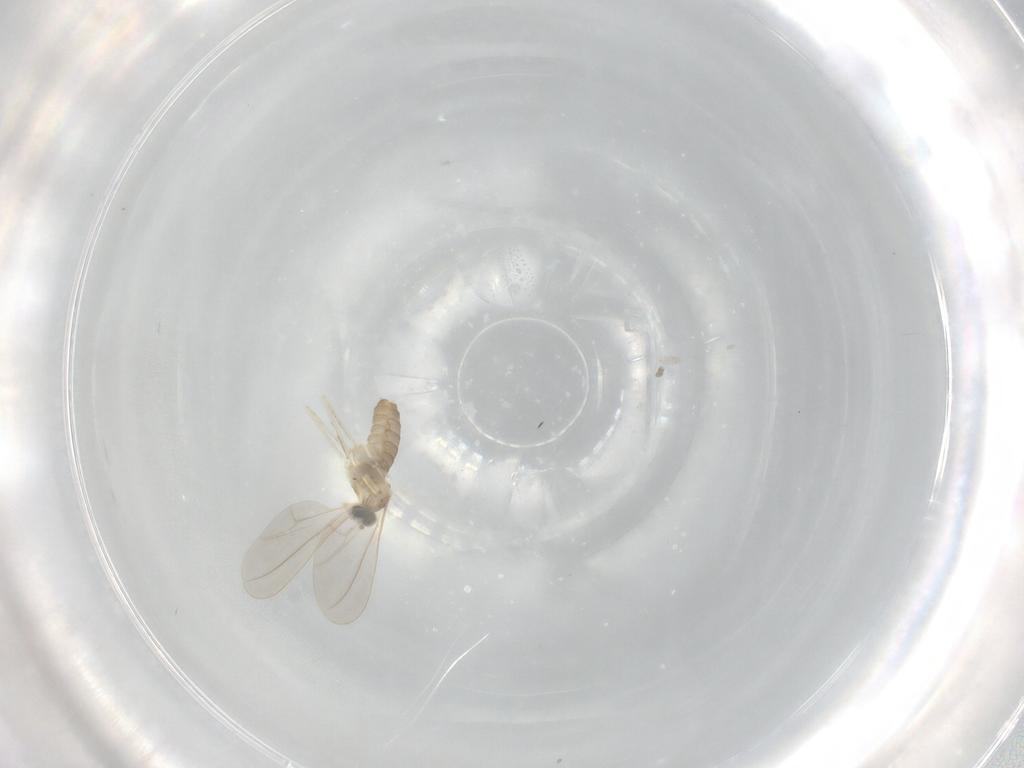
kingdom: Animalia
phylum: Arthropoda
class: Insecta
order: Diptera
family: Cecidomyiidae
